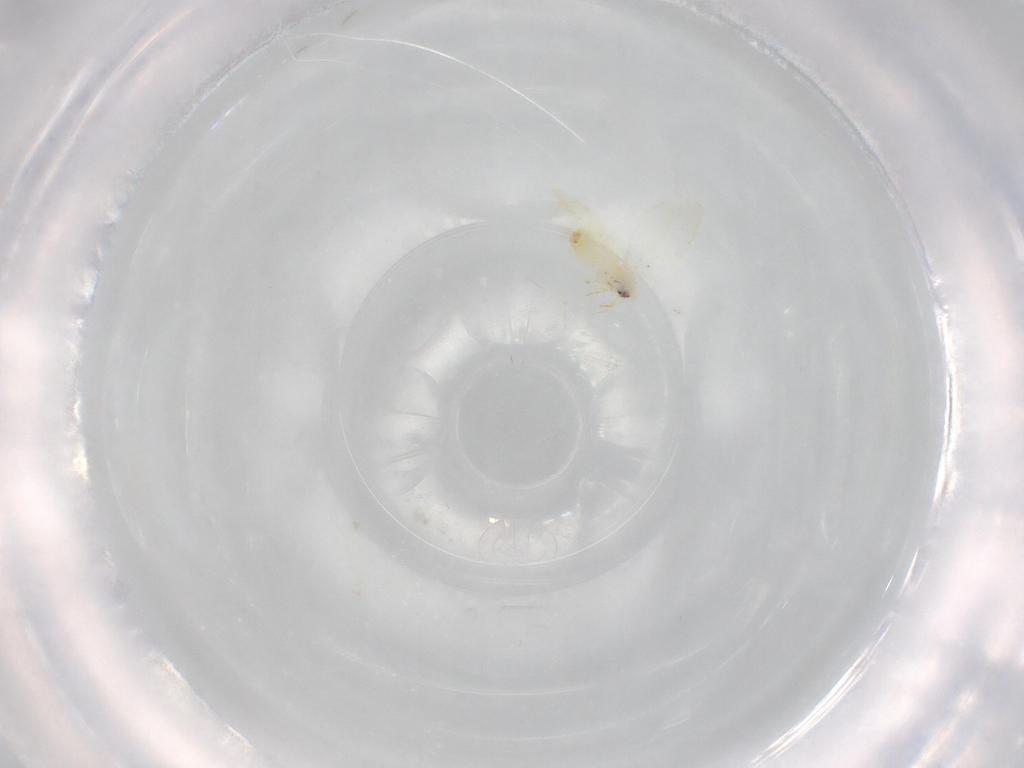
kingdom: Animalia
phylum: Arthropoda
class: Insecta
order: Hemiptera
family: Aleyrodidae
